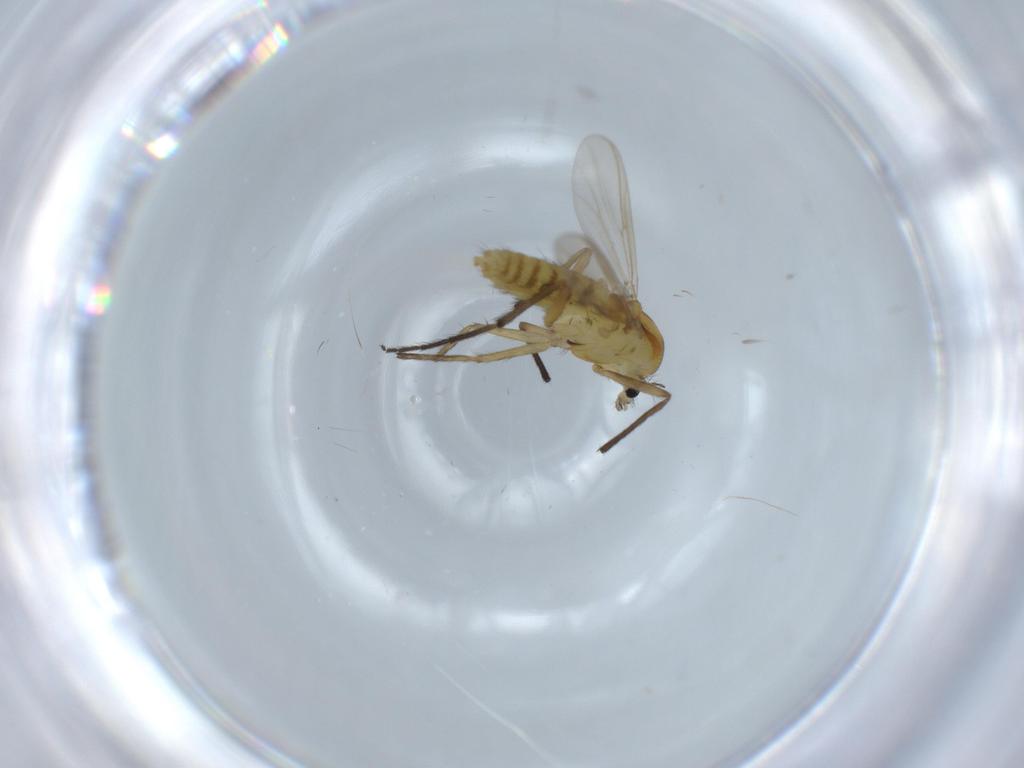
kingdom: Animalia
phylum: Arthropoda
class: Insecta
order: Diptera
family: Chironomidae
